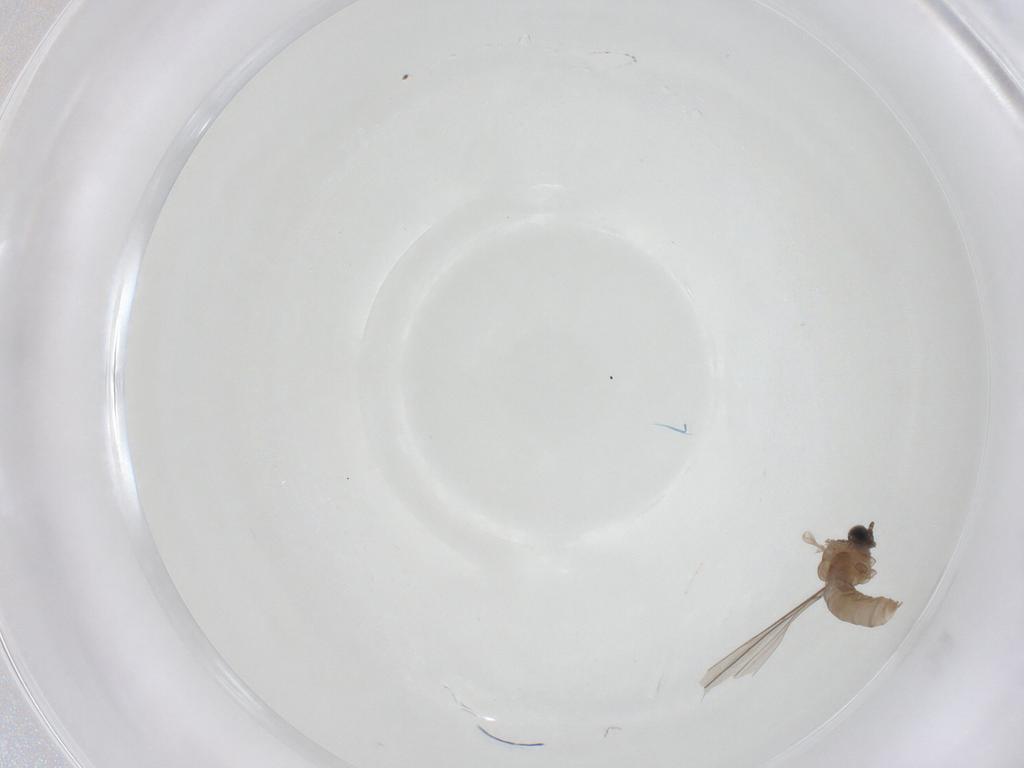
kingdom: Animalia
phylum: Arthropoda
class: Insecta
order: Diptera
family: Cecidomyiidae
